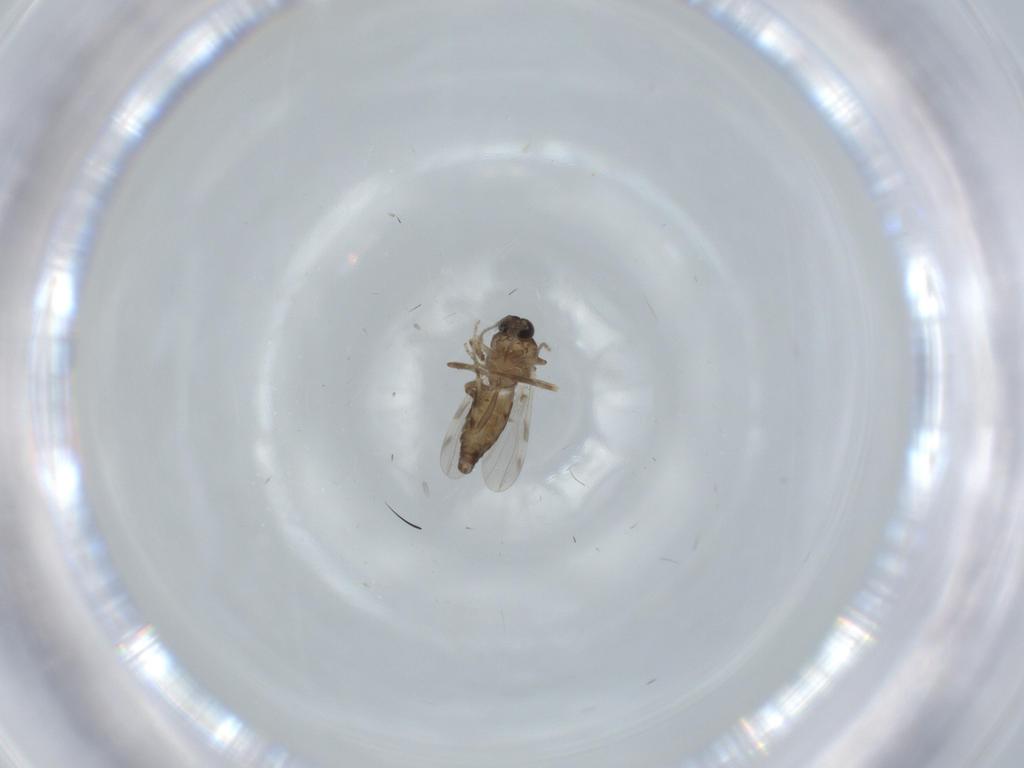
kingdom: Animalia
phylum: Arthropoda
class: Insecta
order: Diptera
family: Ceratopogonidae
